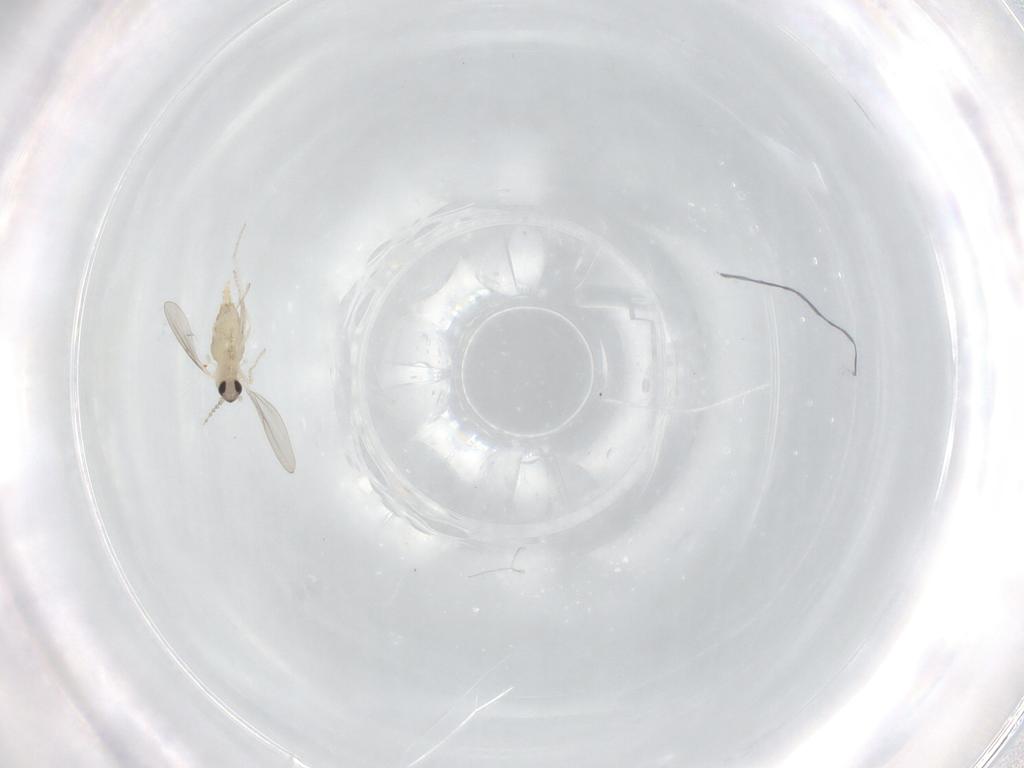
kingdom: Animalia
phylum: Arthropoda
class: Insecta
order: Diptera
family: Cecidomyiidae
